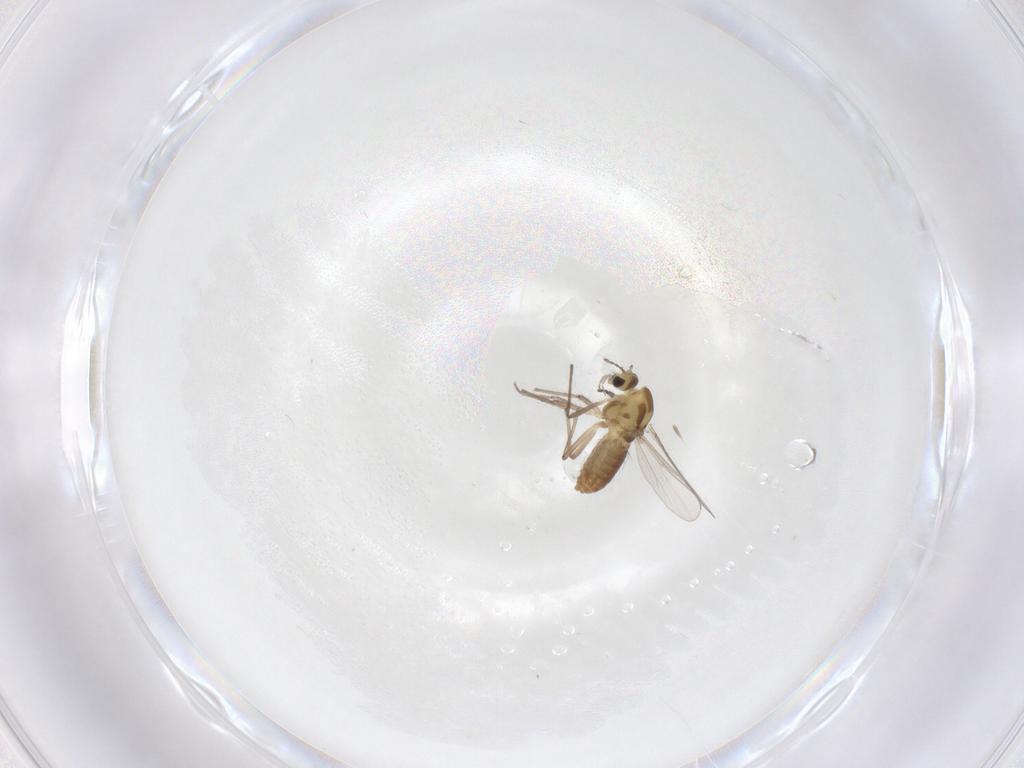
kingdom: Animalia
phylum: Arthropoda
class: Insecta
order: Diptera
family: Chironomidae
